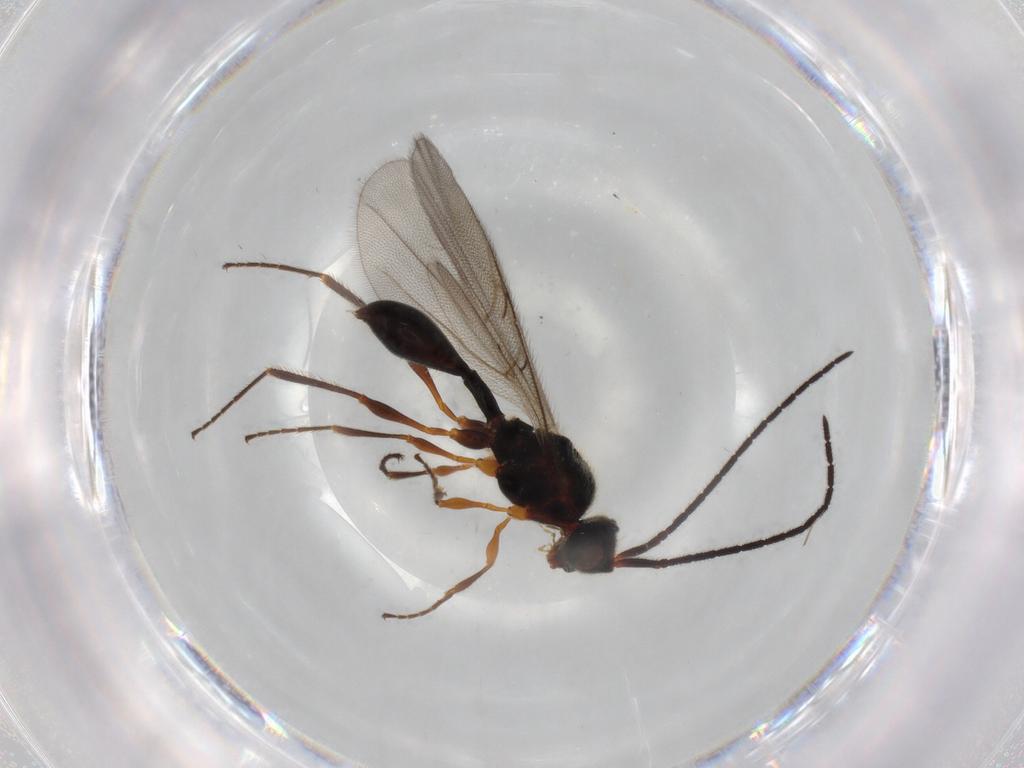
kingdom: Animalia
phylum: Arthropoda
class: Insecta
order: Hymenoptera
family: Diapriidae
